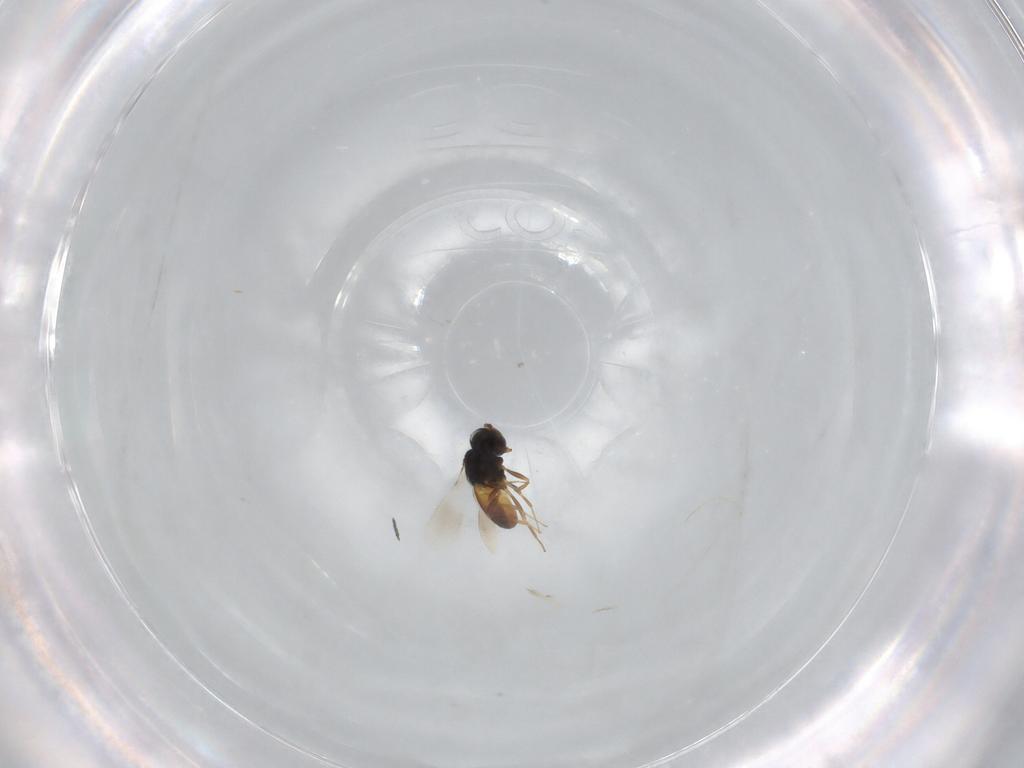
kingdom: Animalia
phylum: Arthropoda
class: Insecta
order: Hymenoptera
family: Scelionidae
